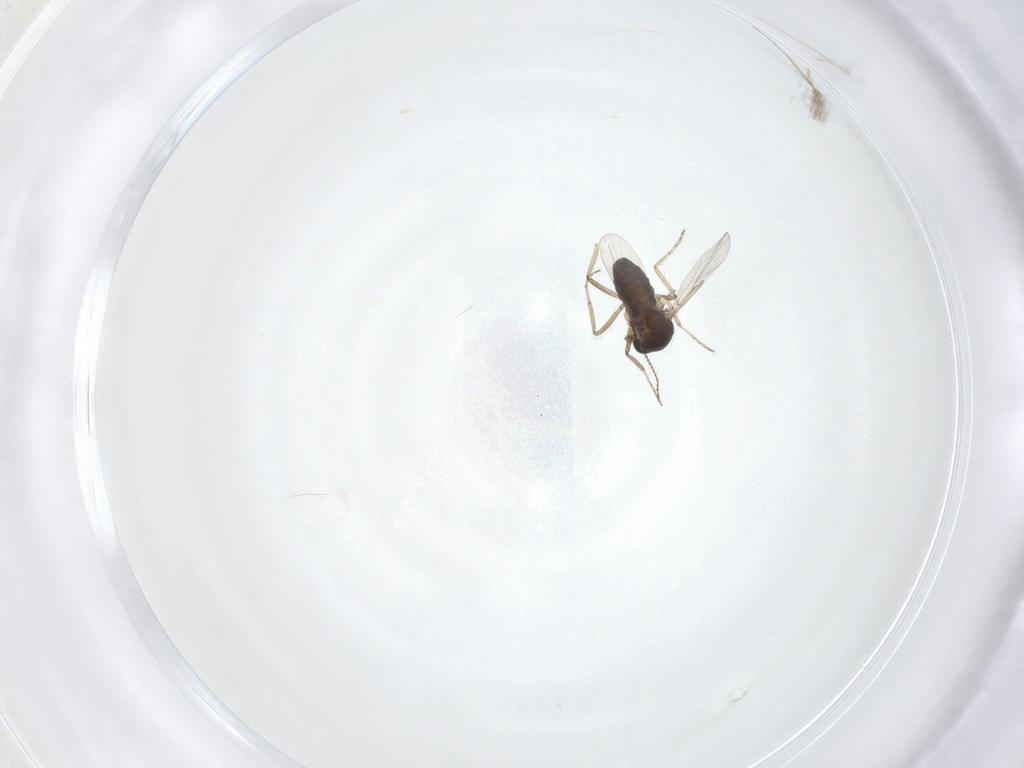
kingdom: Animalia
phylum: Arthropoda
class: Insecta
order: Diptera
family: Ceratopogonidae
